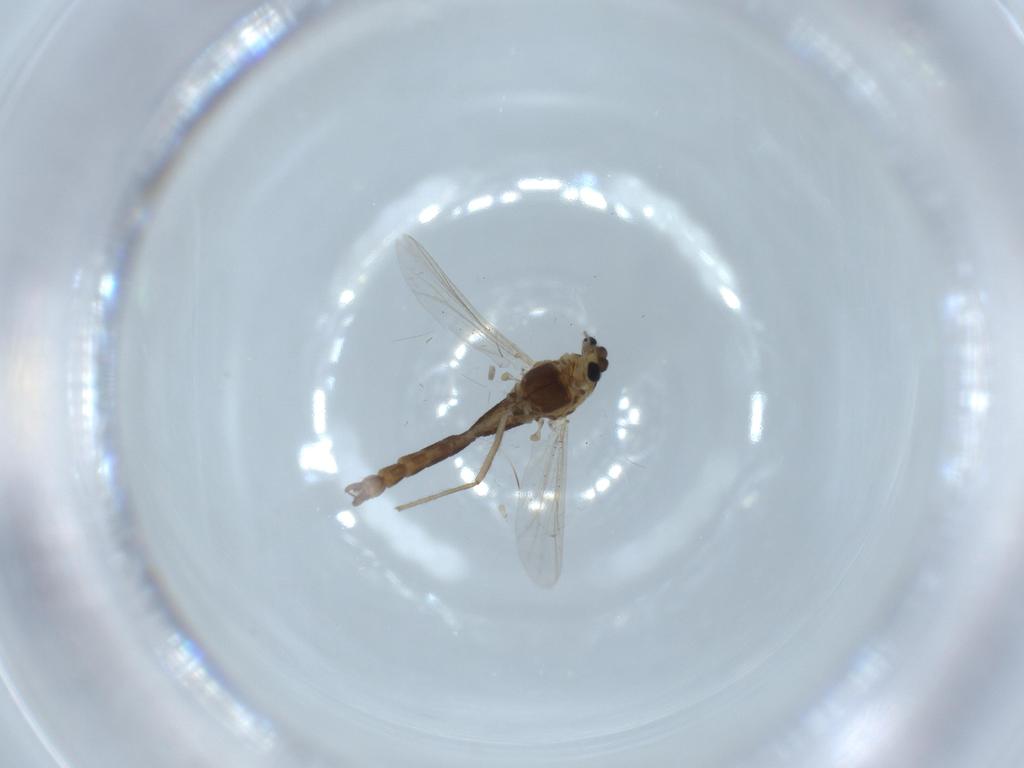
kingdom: Animalia
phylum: Arthropoda
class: Insecta
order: Diptera
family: Chironomidae
